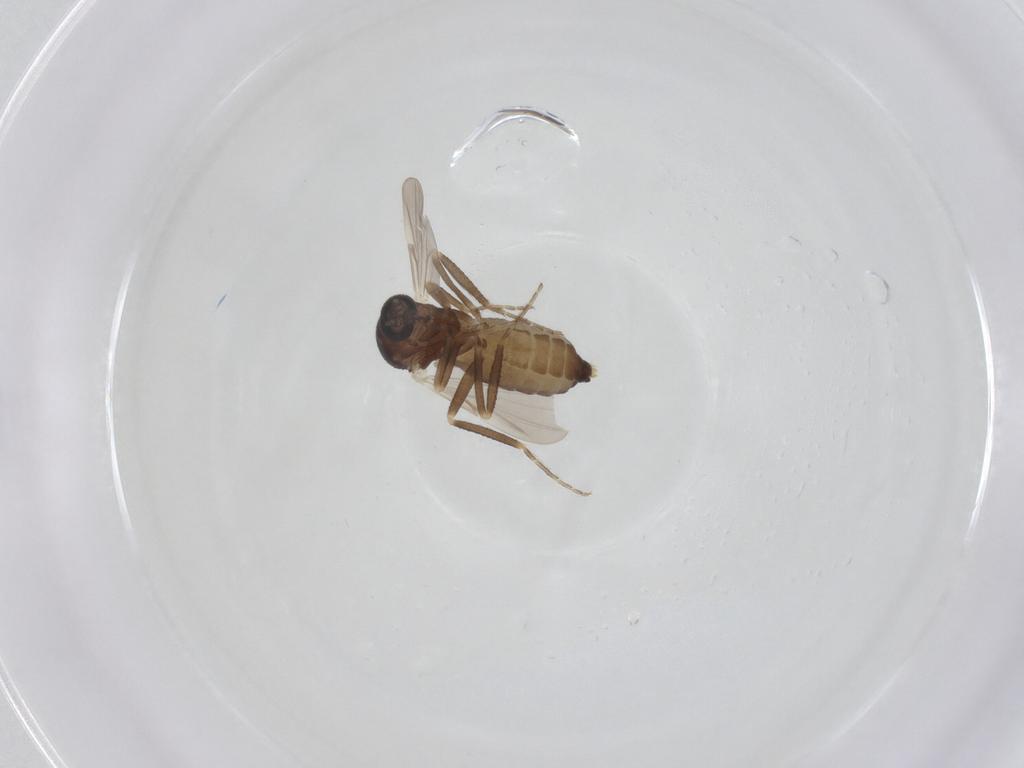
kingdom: Animalia
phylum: Arthropoda
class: Insecta
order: Diptera
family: Ceratopogonidae
